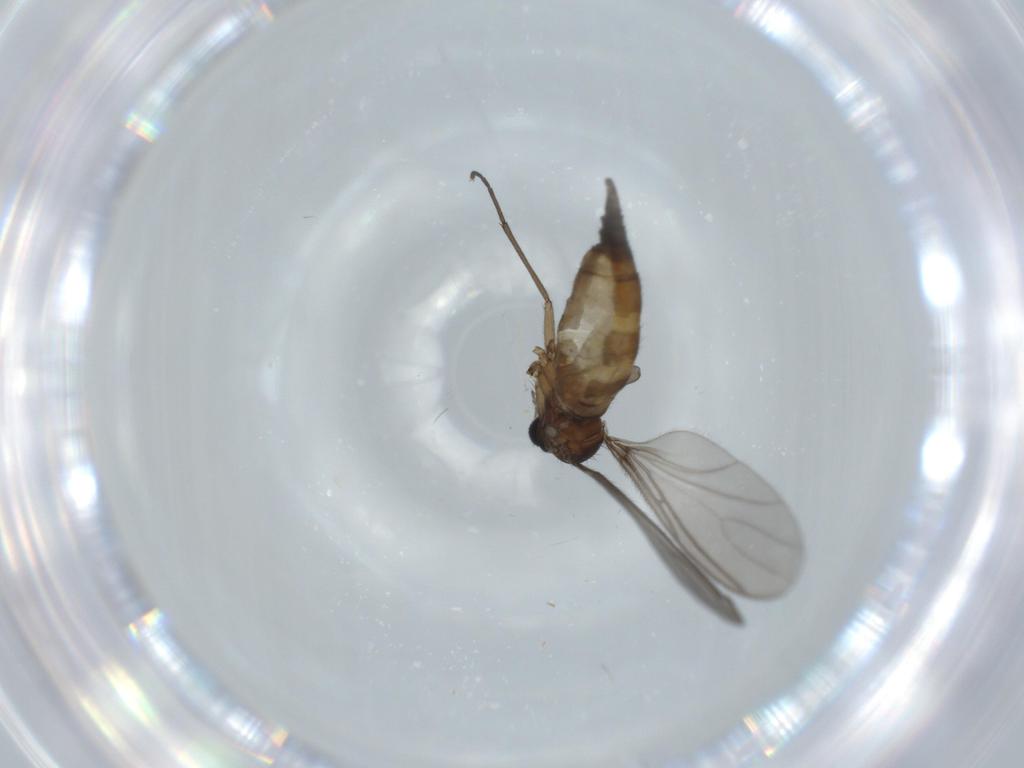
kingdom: Animalia
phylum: Arthropoda
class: Insecta
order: Diptera
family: Sciaridae
